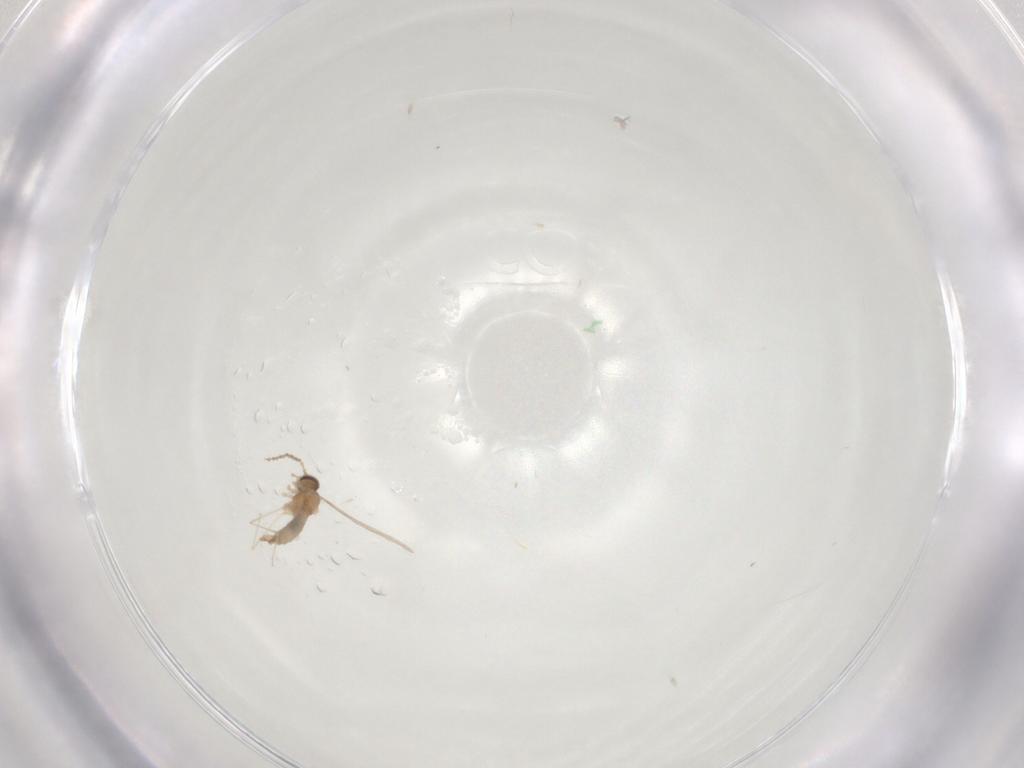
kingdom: Animalia
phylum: Arthropoda
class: Insecta
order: Diptera
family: Cecidomyiidae
